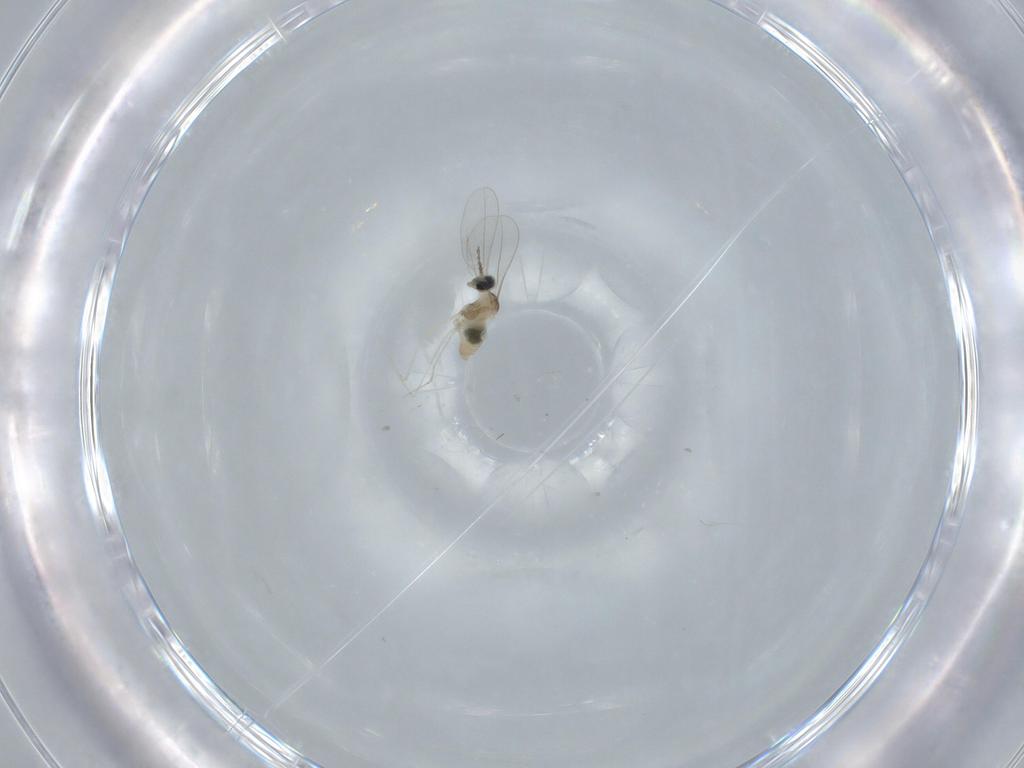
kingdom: Animalia
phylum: Arthropoda
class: Insecta
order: Diptera
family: Cecidomyiidae
